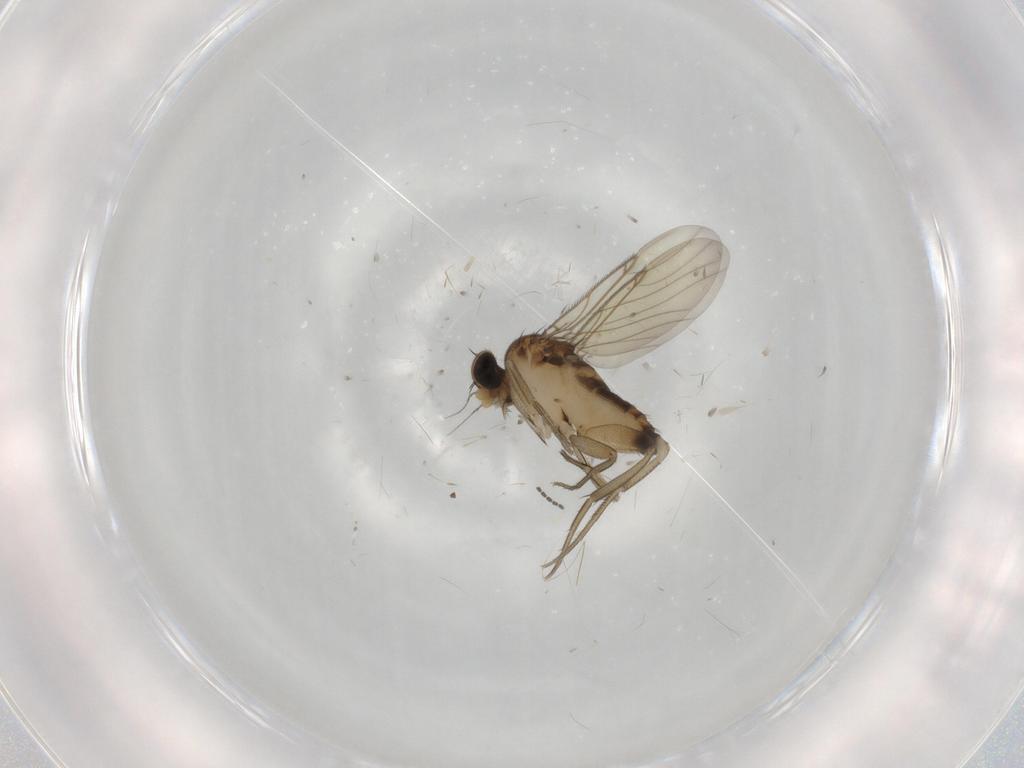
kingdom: Animalia
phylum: Arthropoda
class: Insecta
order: Diptera
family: Phoridae
